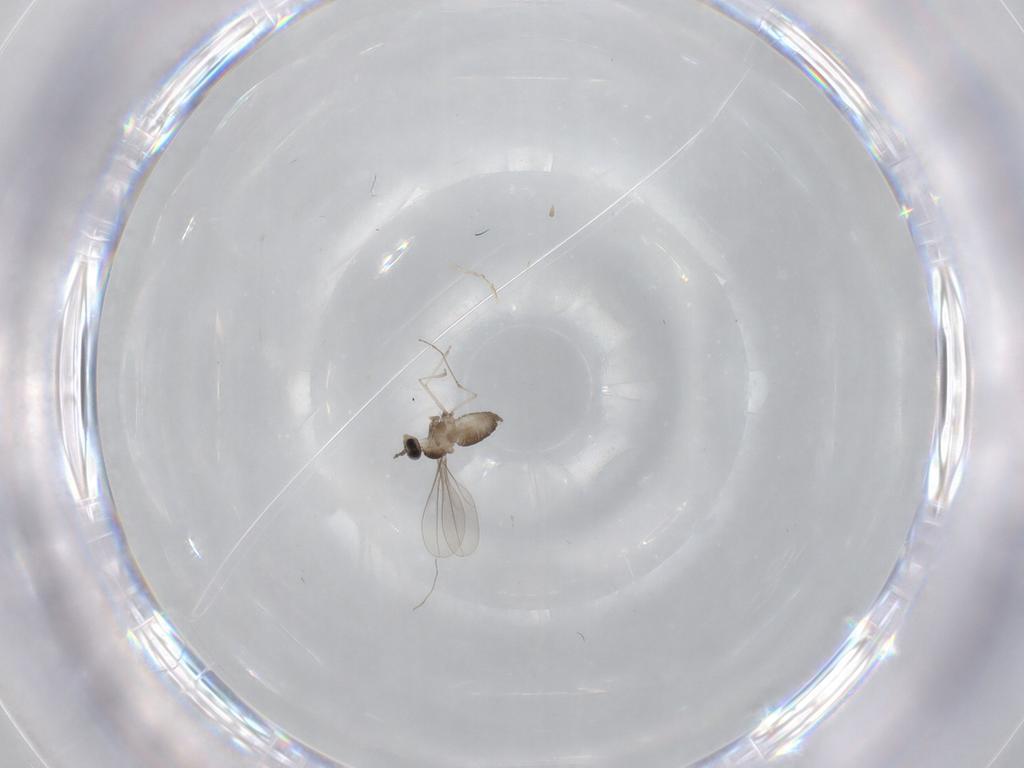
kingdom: Animalia
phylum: Arthropoda
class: Insecta
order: Diptera
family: Cecidomyiidae
